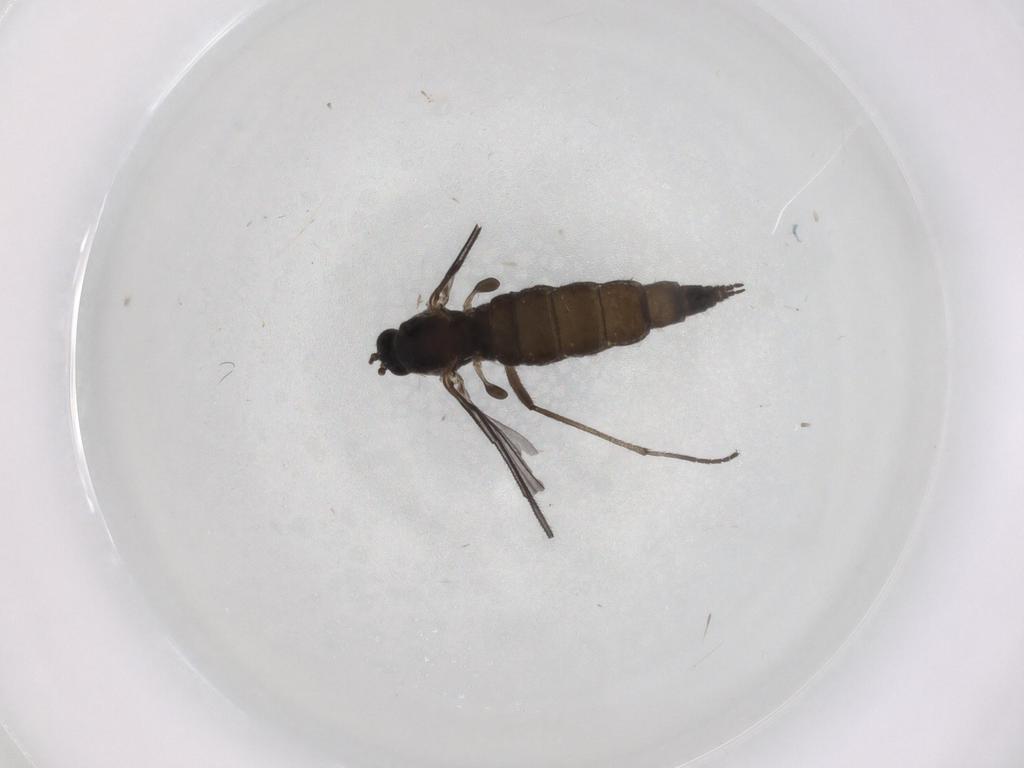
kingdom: Animalia
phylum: Arthropoda
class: Insecta
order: Diptera
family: Sciaridae
